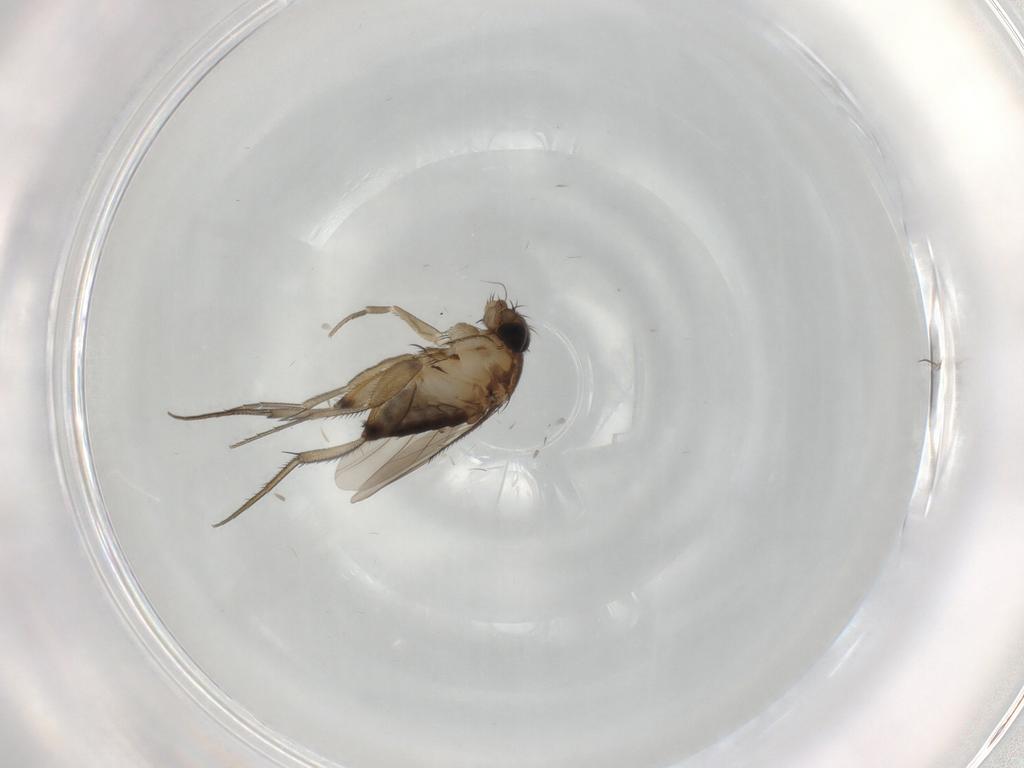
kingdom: Animalia
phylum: Arthropoda
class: Insecta
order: Diptera
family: Phoridae
